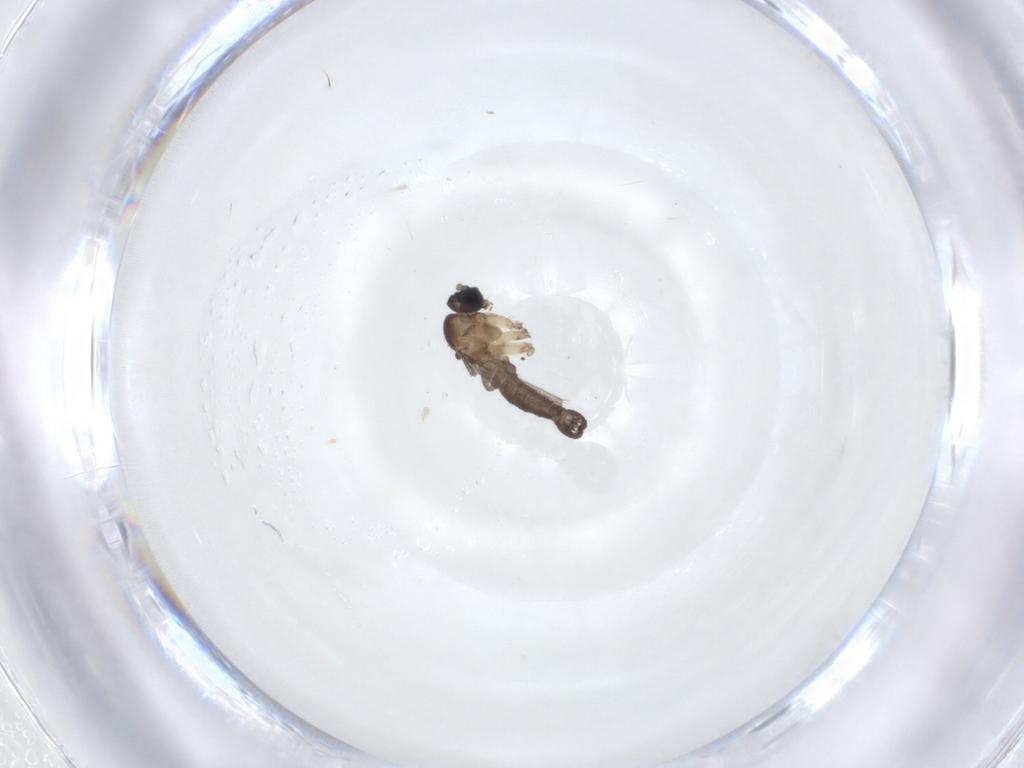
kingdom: Animalia
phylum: Arthropoda
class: Insecta
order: Diptera
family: Sciaridae
